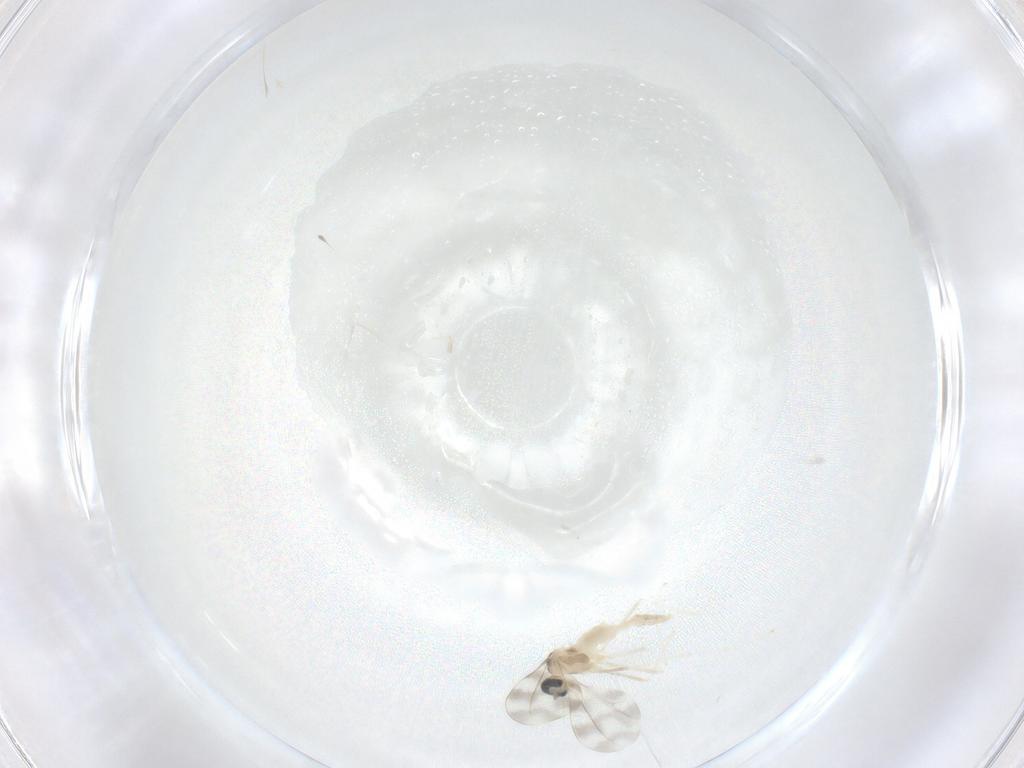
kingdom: Animalia
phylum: Arthropoda
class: Insecta
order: Diptera
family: Cecidomyiidae
